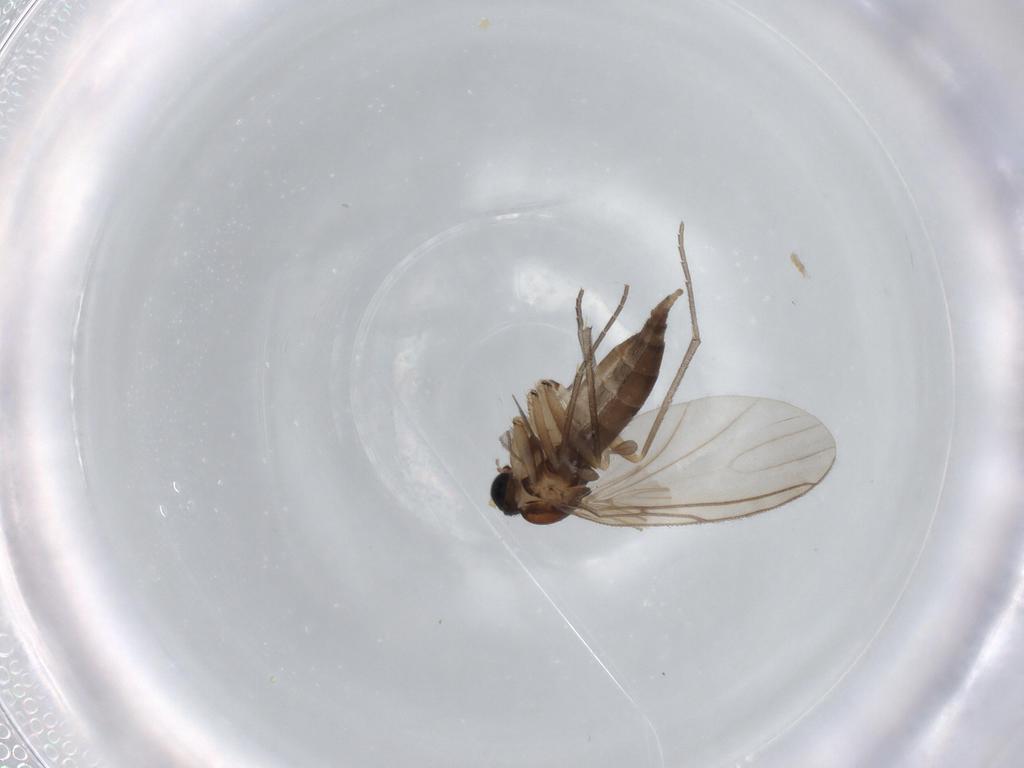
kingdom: Animalia
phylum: Arthropoda
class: Insecta
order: Diptera
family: Sciaridae
